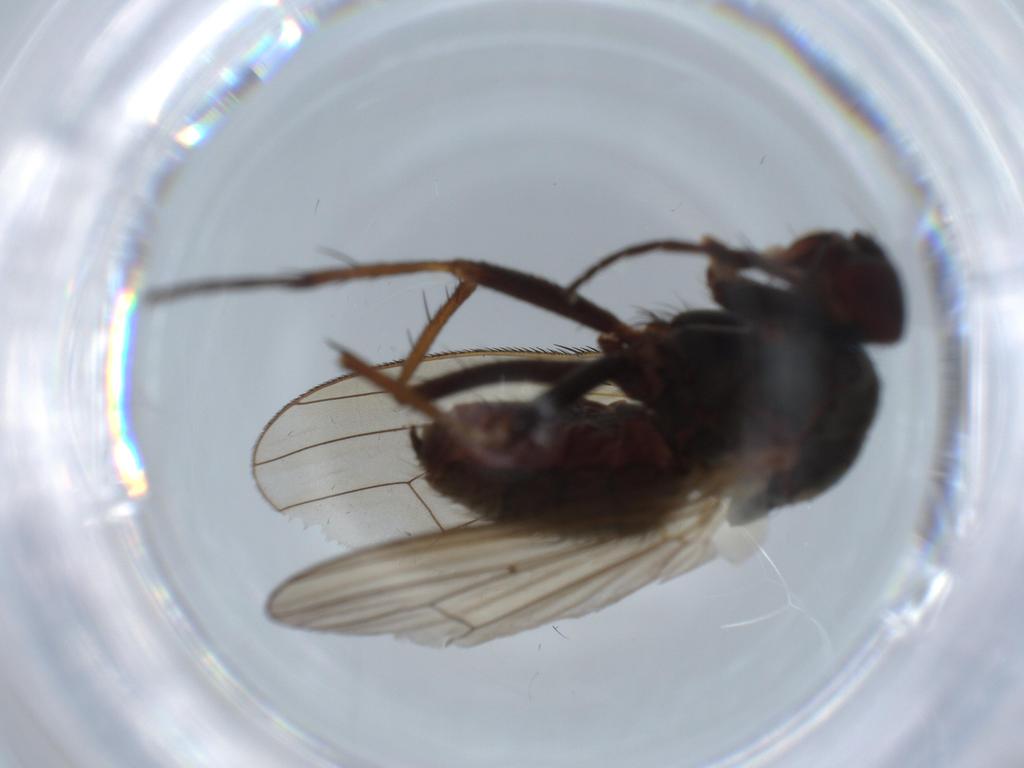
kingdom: Animalia
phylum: Arthropoda
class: Insecta
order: Diptera
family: Anthomyiidae
